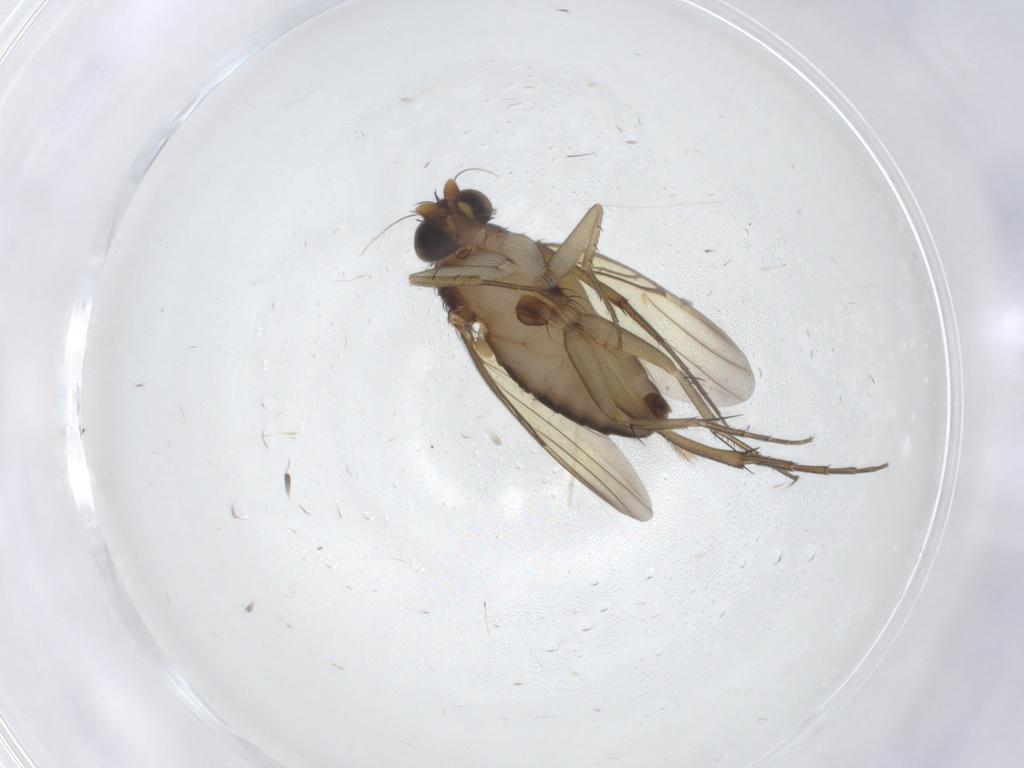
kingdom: Animalia
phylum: Arthropoda
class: Insecta
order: Diptera
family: Phoridae
